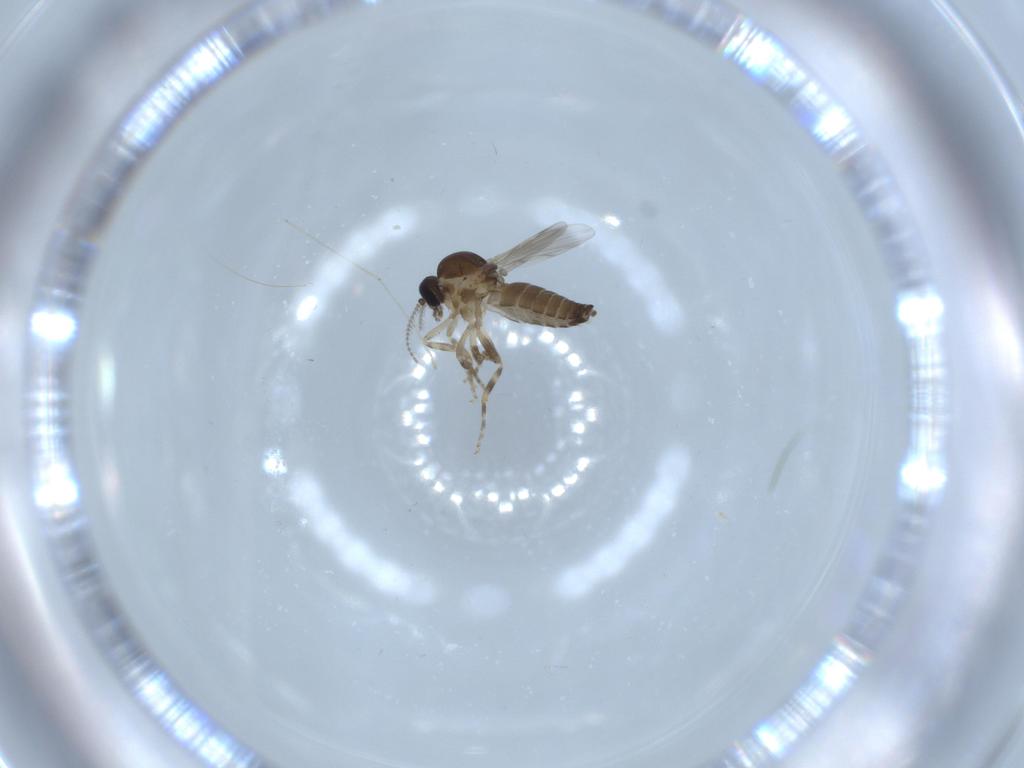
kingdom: Animalia
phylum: Arthropoda
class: Insecta
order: Diptera
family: Ceratopogonidae
